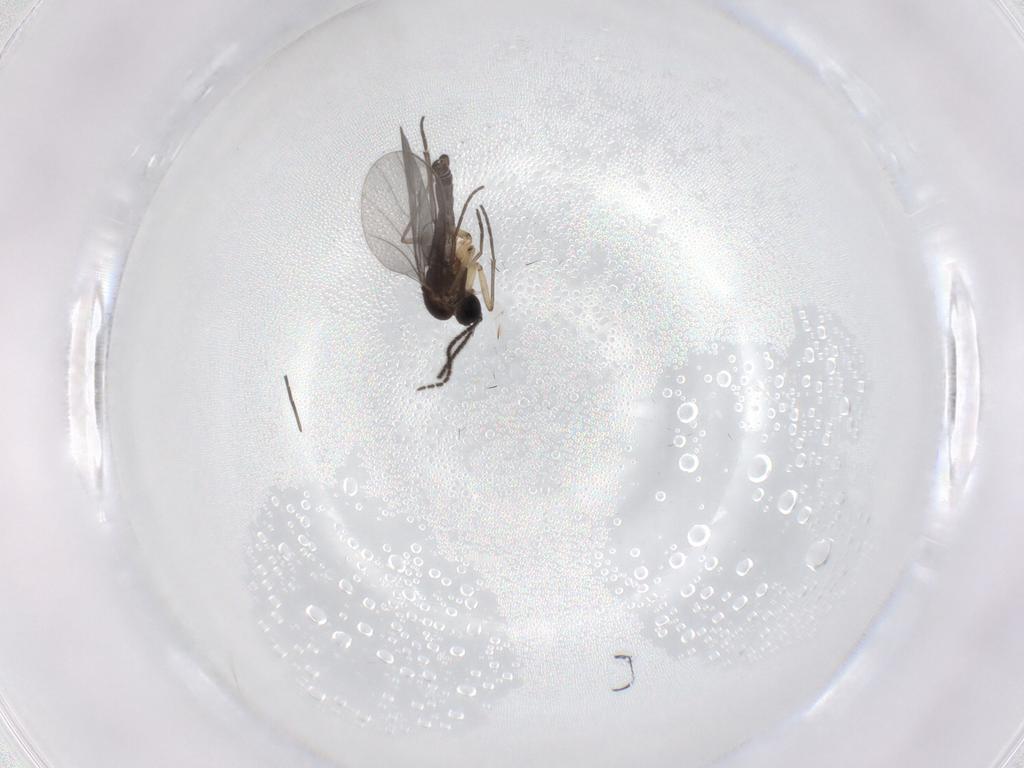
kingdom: Animalia
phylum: Arthropoda
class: Insecta
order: Diptera
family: Sciaridae
